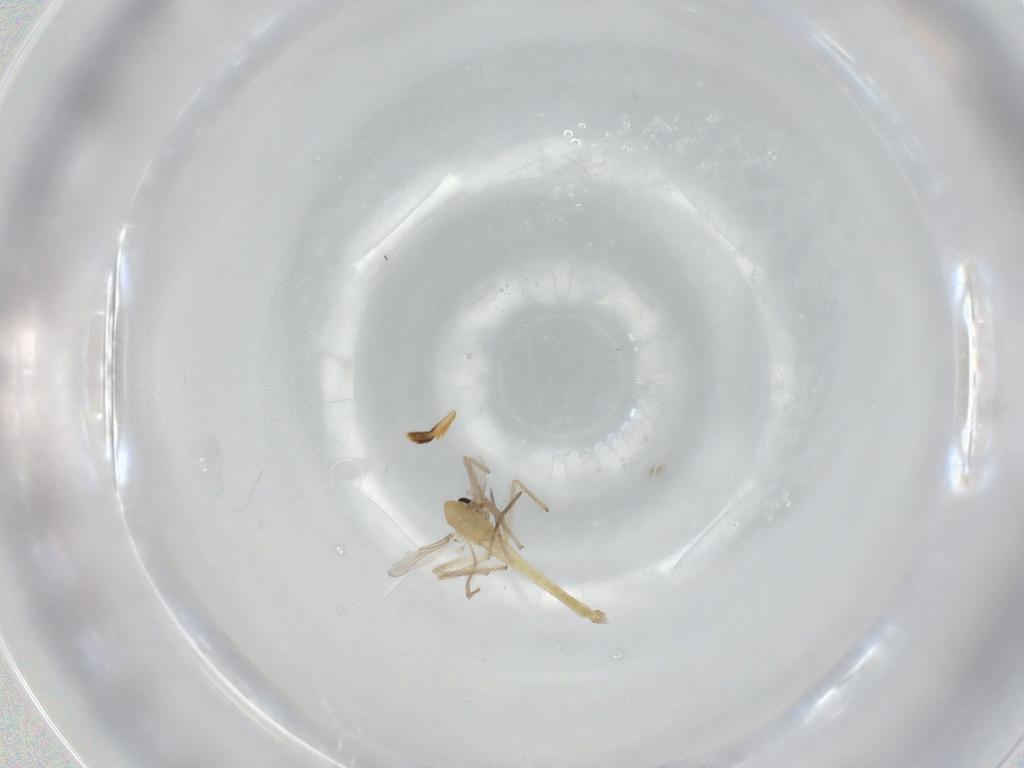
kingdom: Animalia
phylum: Arthropoda
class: Insecta
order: Diptera
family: Chironomidae
